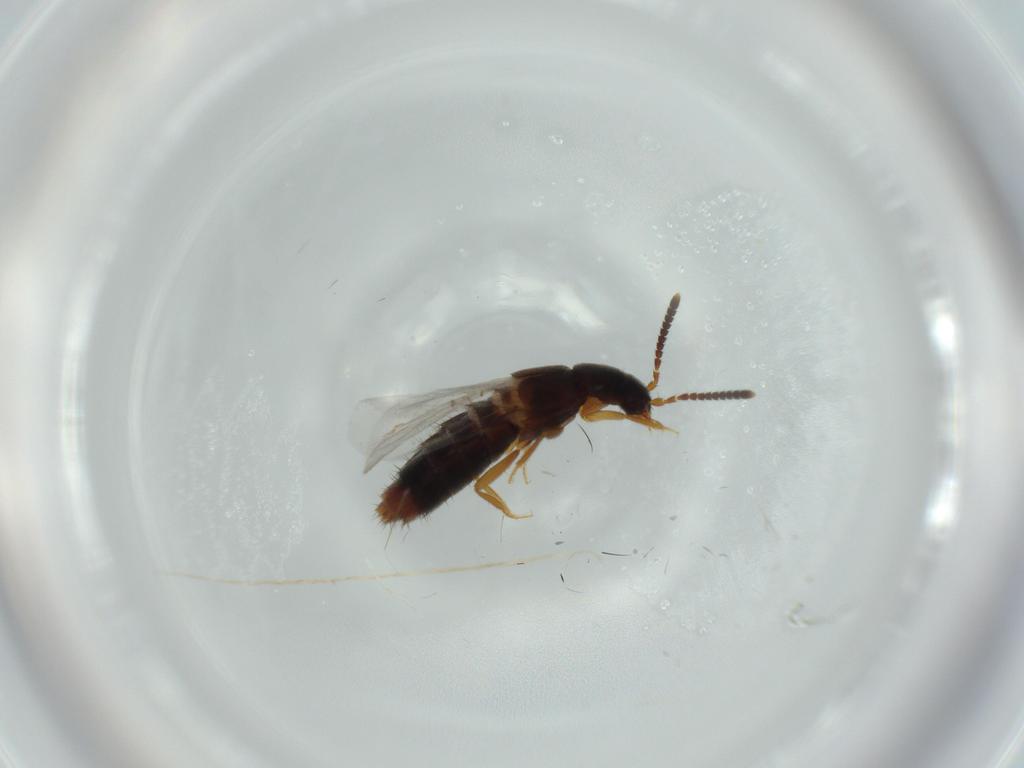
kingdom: Animalia
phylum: Arthropoda
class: Insecta
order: Coleoptera
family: Staphylinidae
